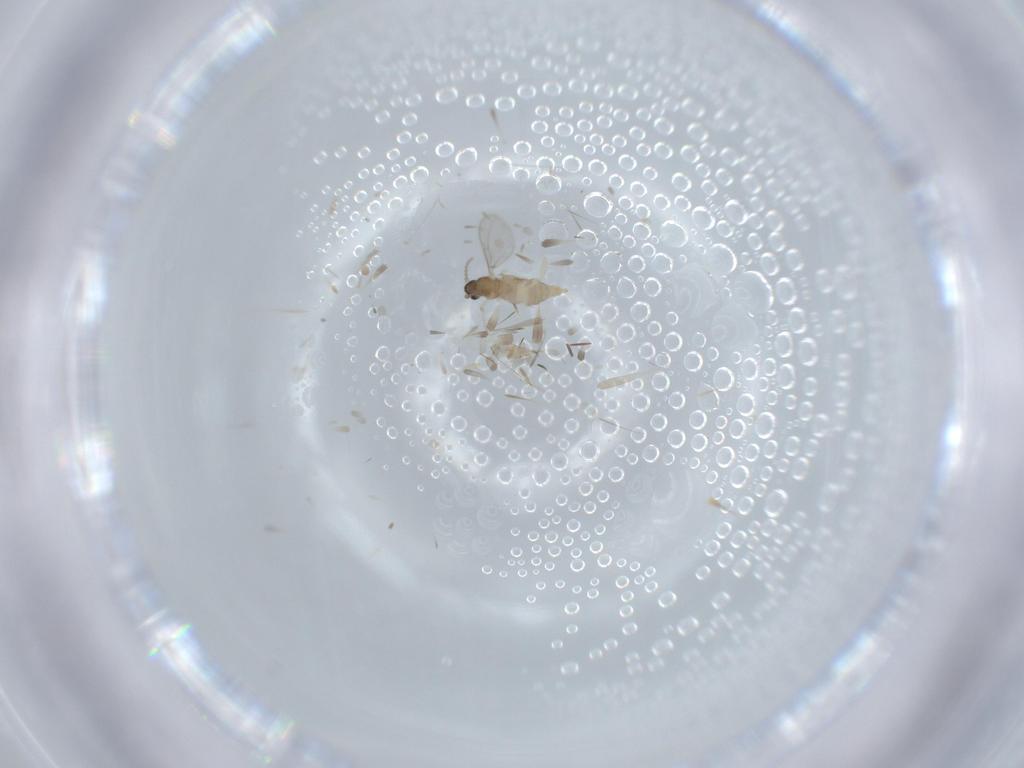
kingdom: Animalia
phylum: Arthropoda
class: Insecta
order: Diptera
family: Cecidomyiidae
